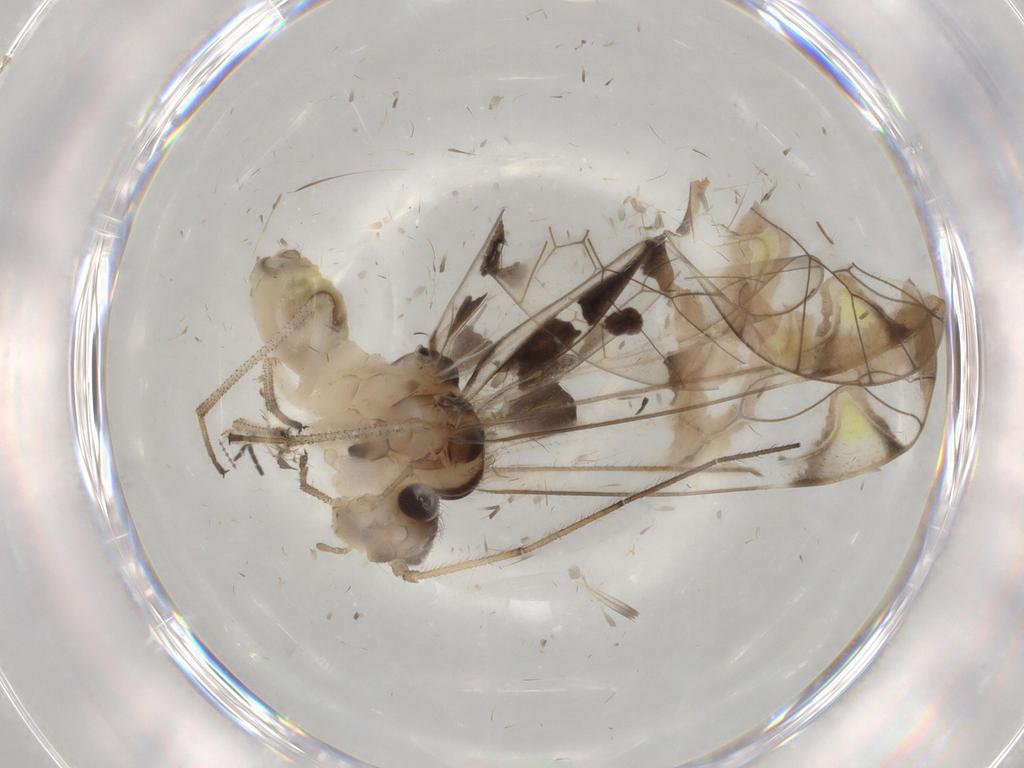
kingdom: Animalia
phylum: Arthropoda
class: Insecta
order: Psocodea
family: Amphipsocidae
